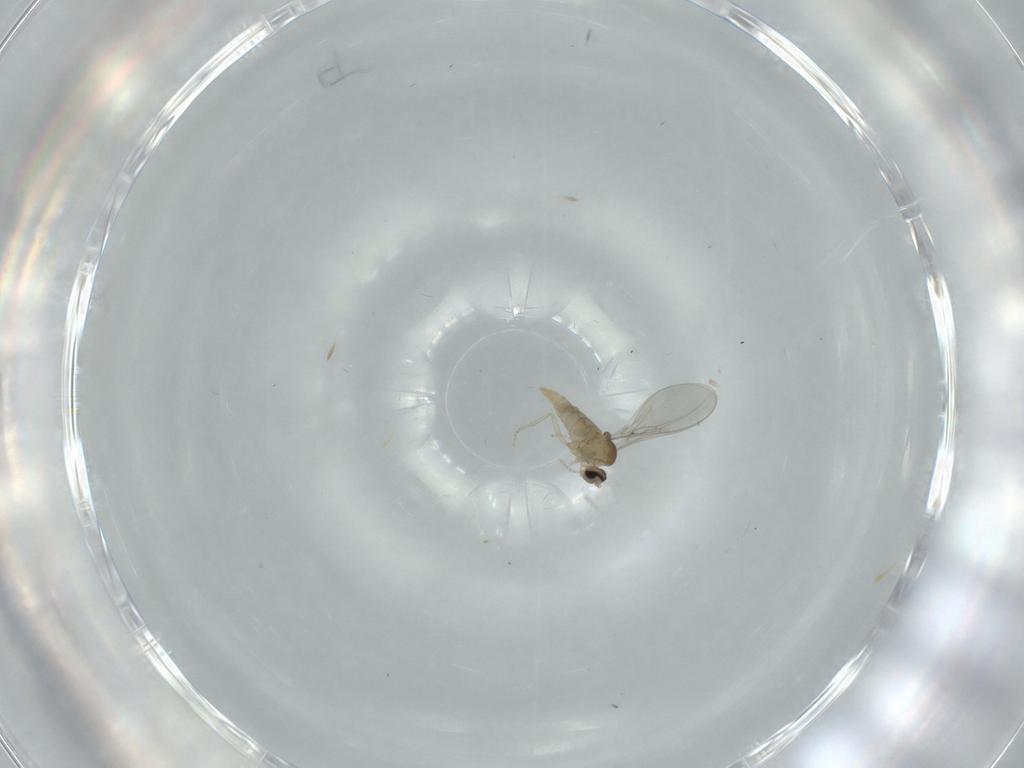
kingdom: Animalia
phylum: Arthropoda
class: Insecta
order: Diptera
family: Cecidomyiidae
